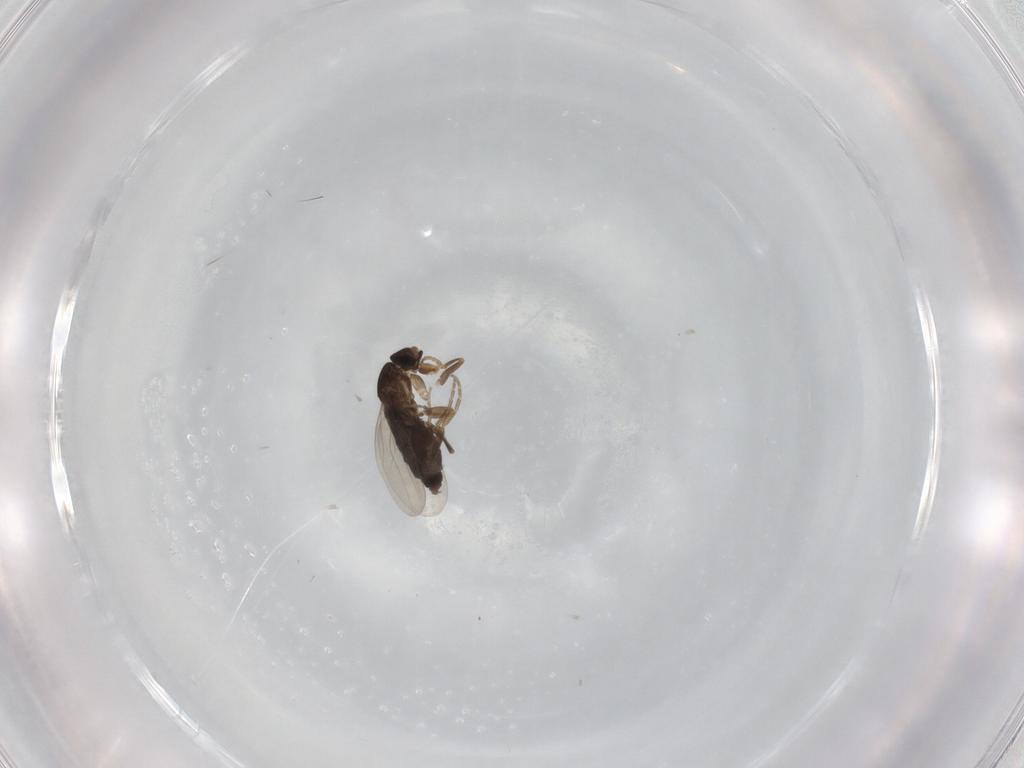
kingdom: Animalia
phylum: Arthropoda
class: Insecta
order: Diptera
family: Phoridae
